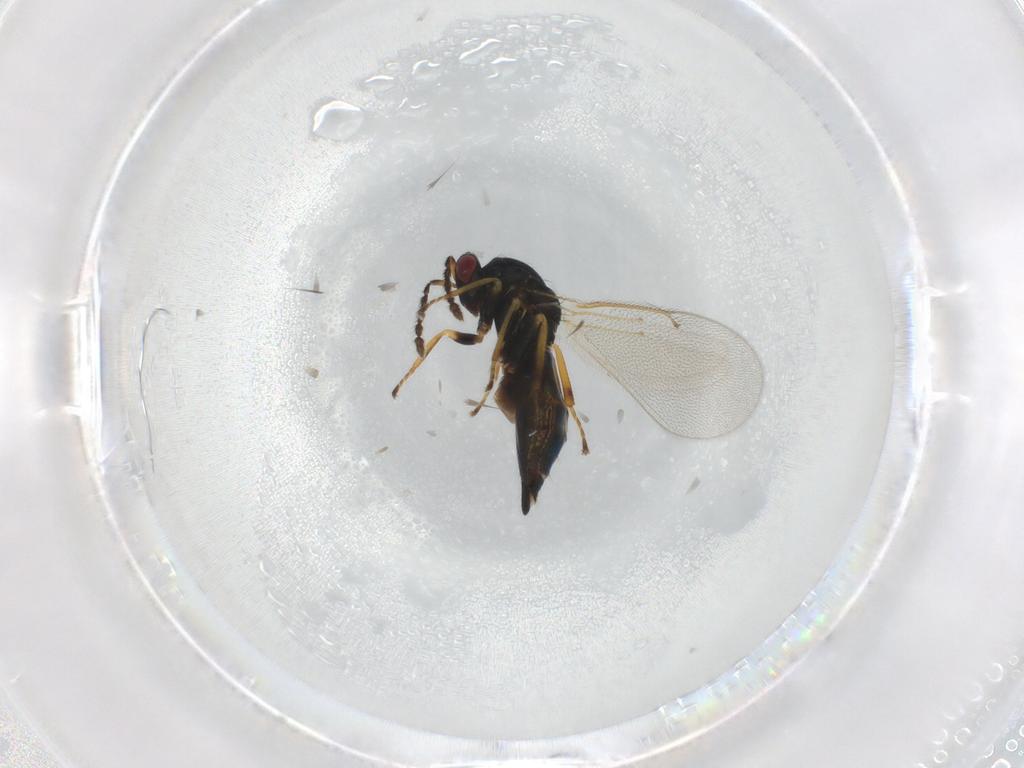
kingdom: Animalia
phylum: Arthropoda
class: Insecta
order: Hymenoptera
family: Eulophidae
